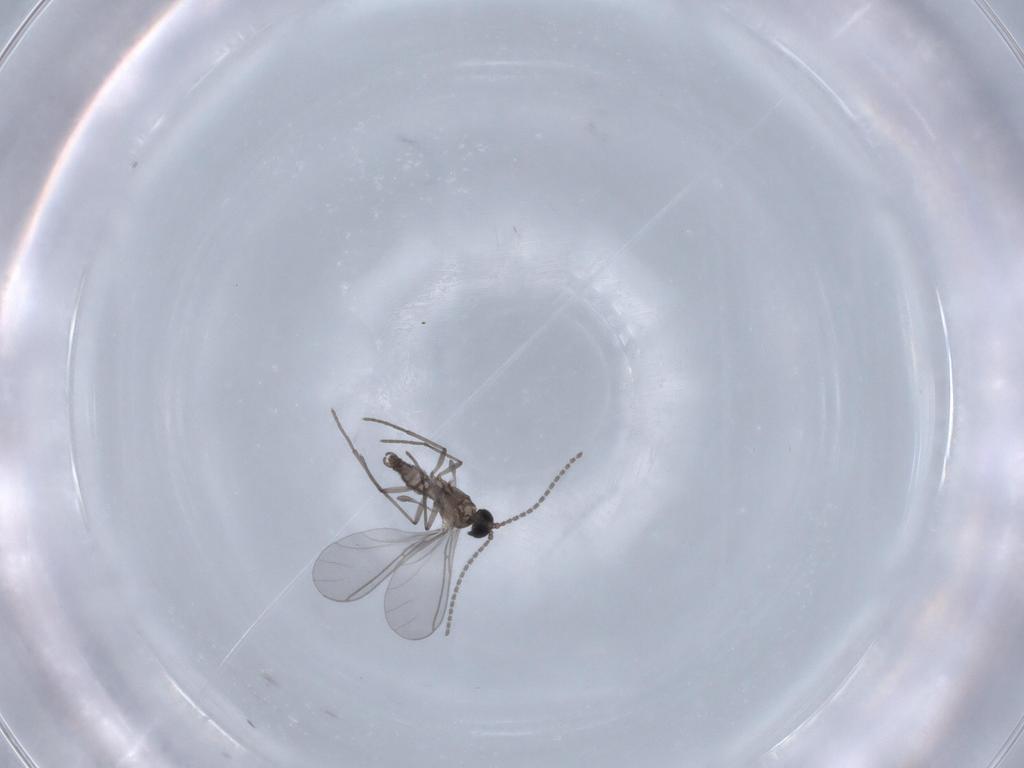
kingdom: Animalia
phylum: Arthropoda
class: Insecta
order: Diptera
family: Sciaridae
